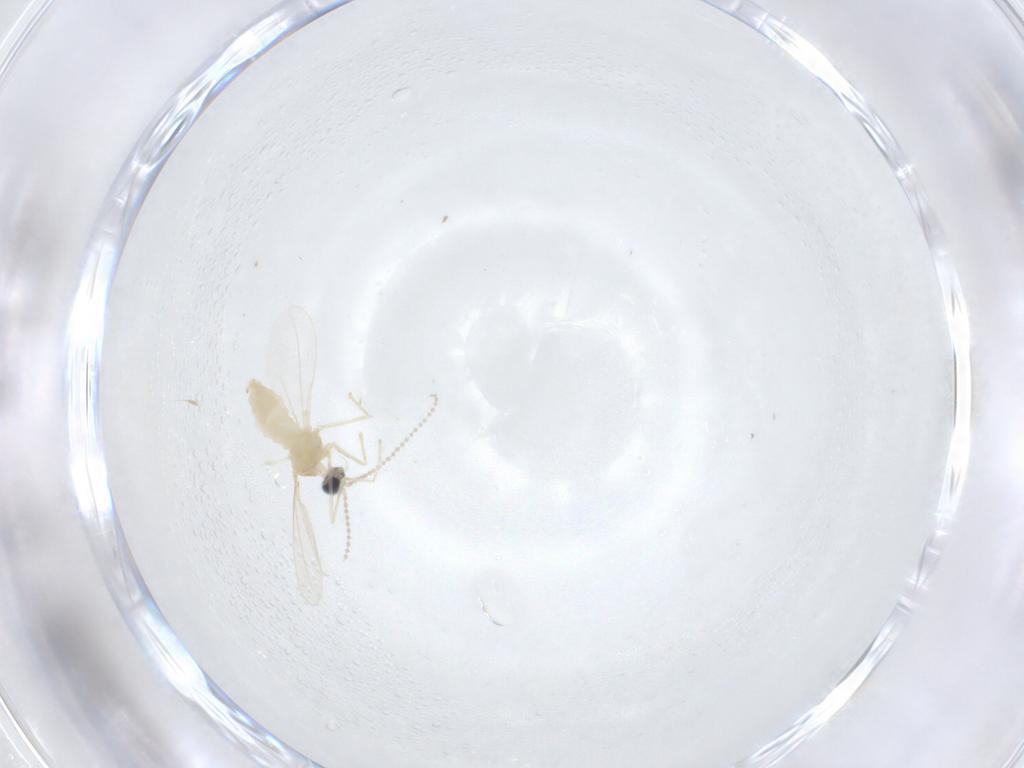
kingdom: Animalia
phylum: Arthropoda
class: Insecta
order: Diptera
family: Cecidomyiidae
